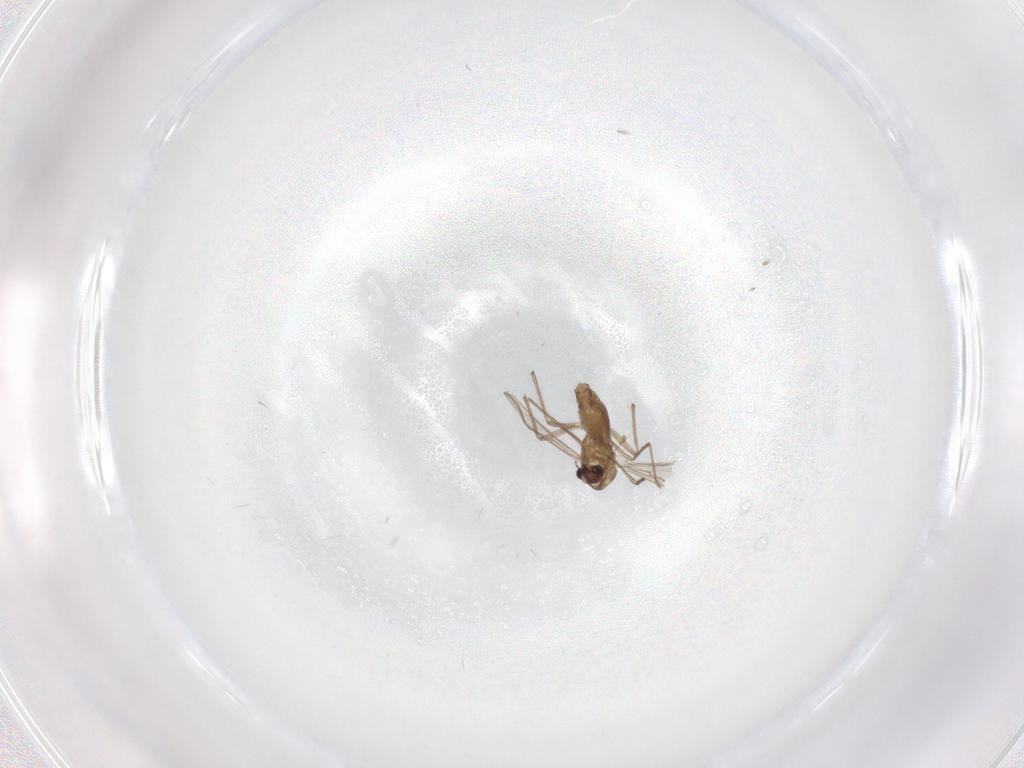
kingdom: Animalia
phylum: Arthropoda
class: Insecta
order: Diptera
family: Chironomidae
